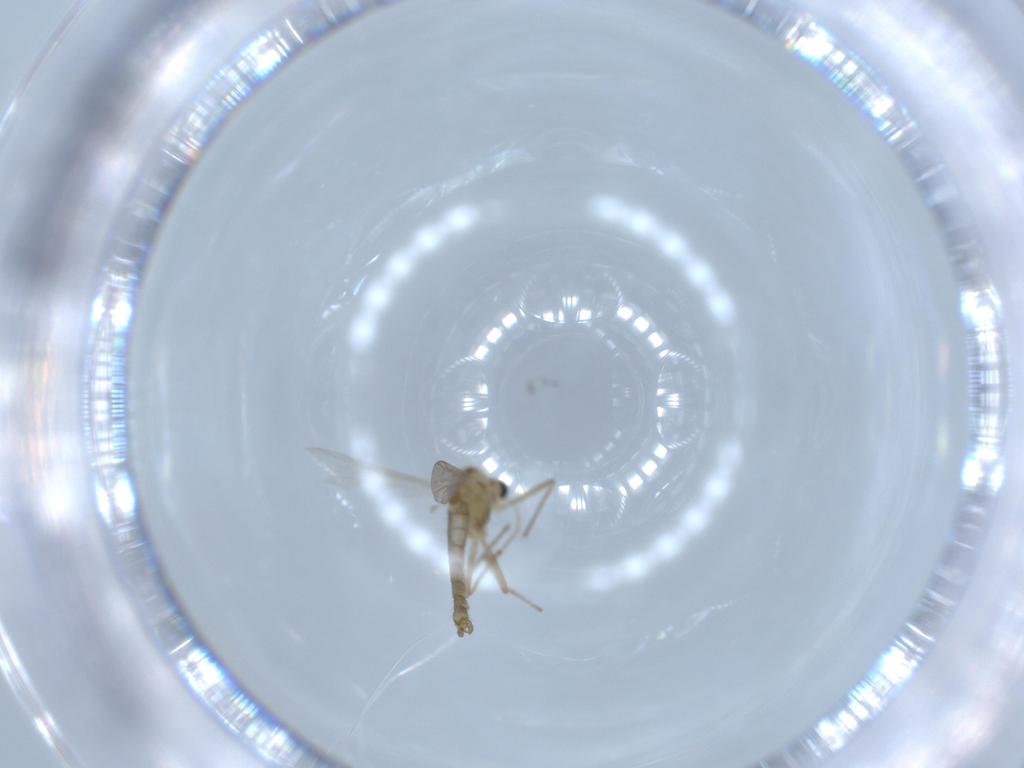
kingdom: Animalia
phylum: Arthropoda
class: Insecta
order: Diptera
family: Chironomidae
